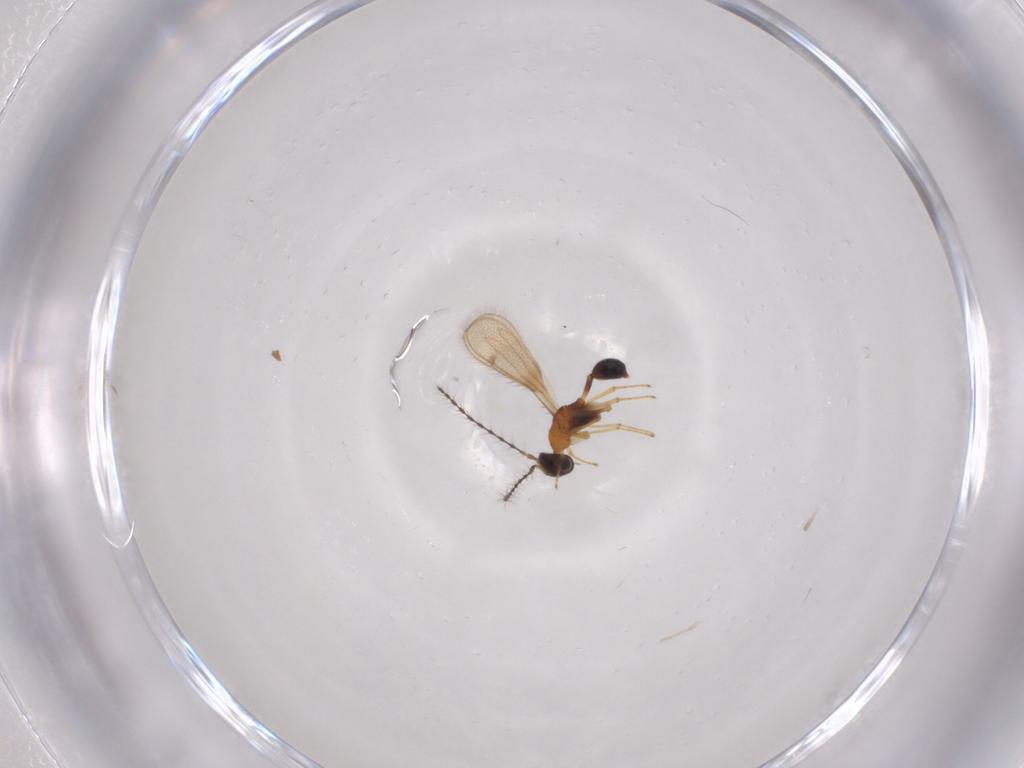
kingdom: Animalia
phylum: Arthropoda
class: Insecta
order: Hymenoptera
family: Diparidae
